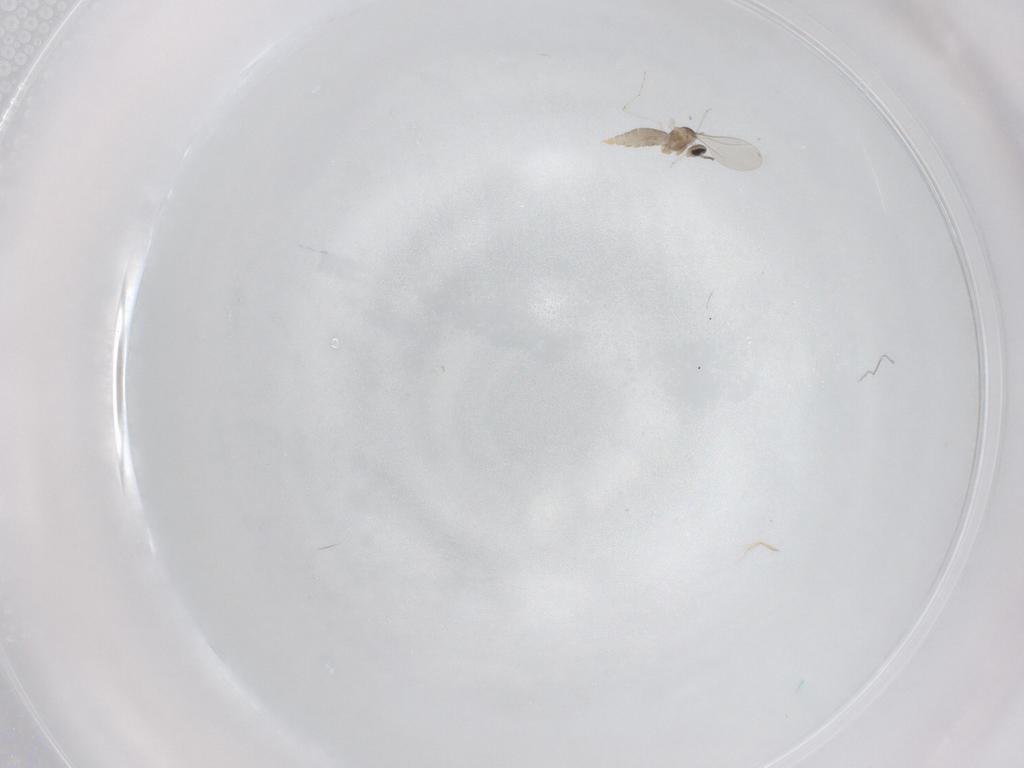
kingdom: Animalia
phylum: Arthropoda
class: Insecta
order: Diptera
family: Cecidomyiidae
